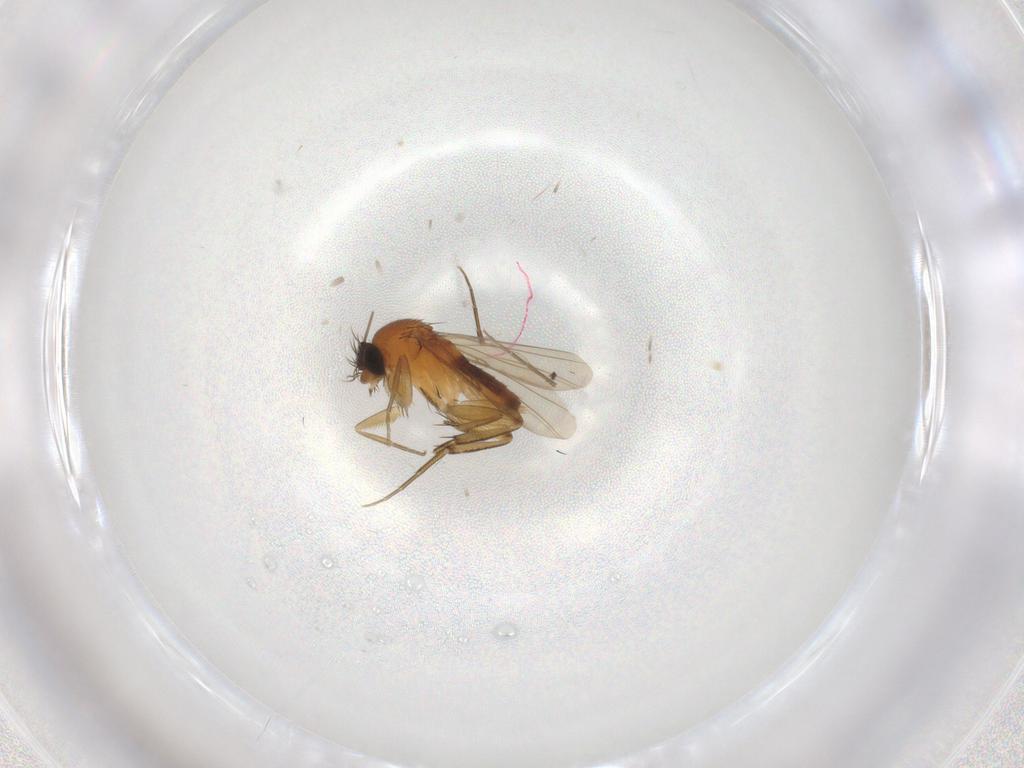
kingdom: Animalia
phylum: Arthropoda
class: Insecta
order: Diptera
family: Phoridae
